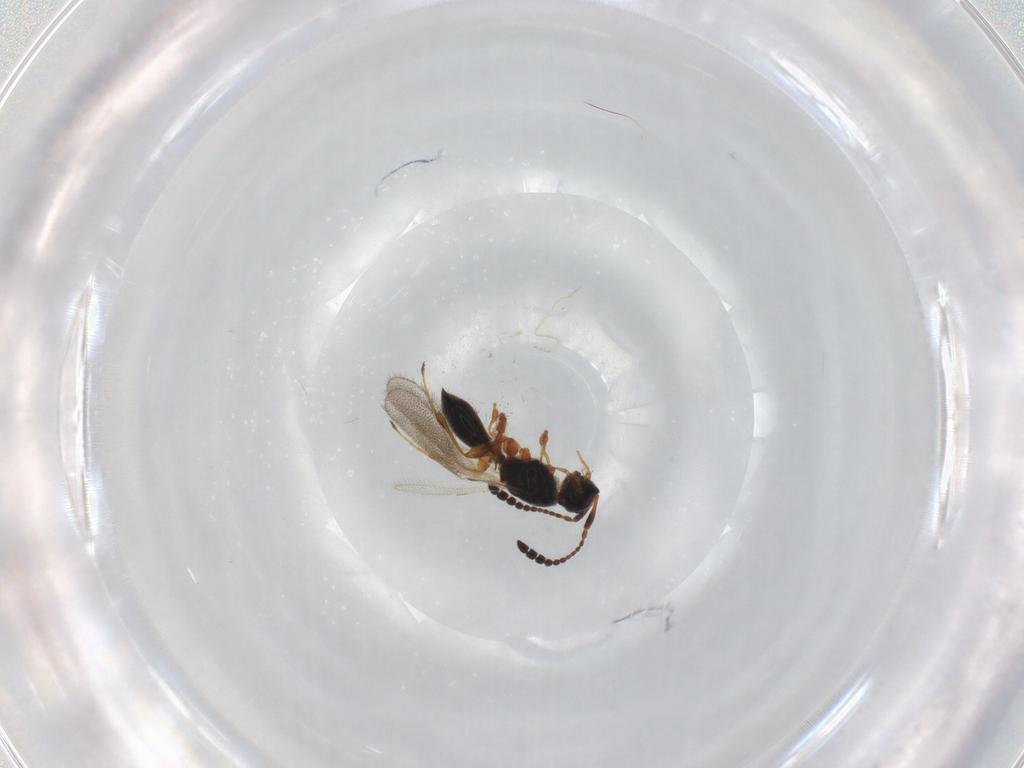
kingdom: Animalia
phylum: Arthropoda
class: Insecta
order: Hymenoptera
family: Diapriidae
